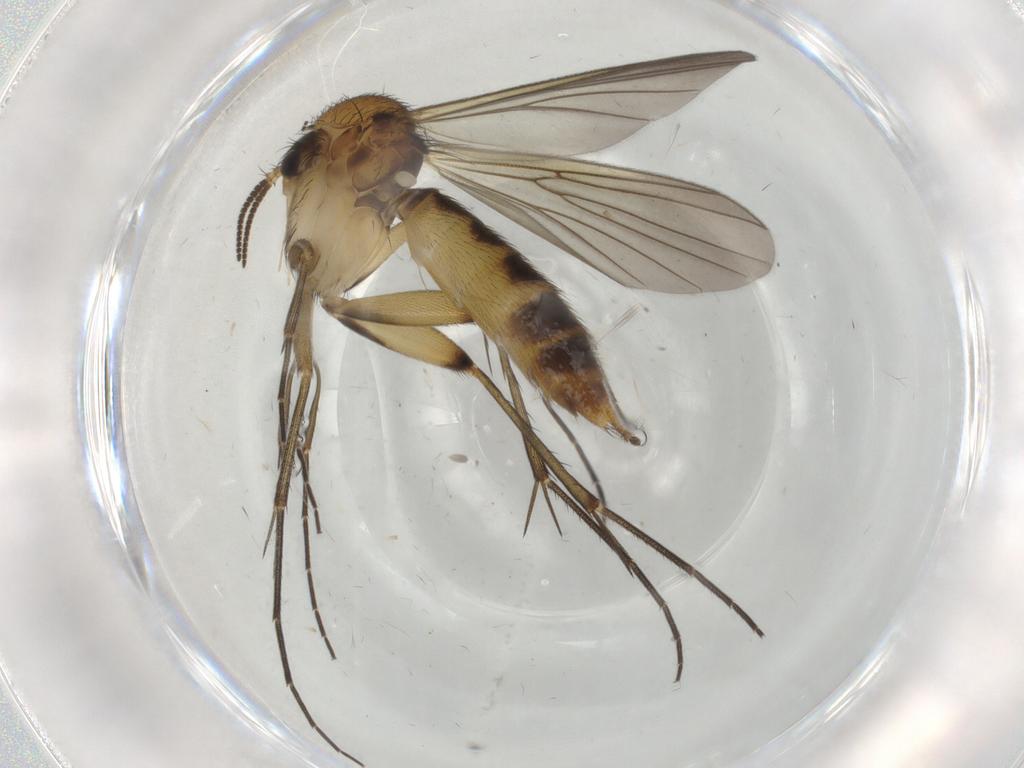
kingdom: Animalia
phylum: Arthropoda
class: Insecta
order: Diptera
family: Mycetophilidae
